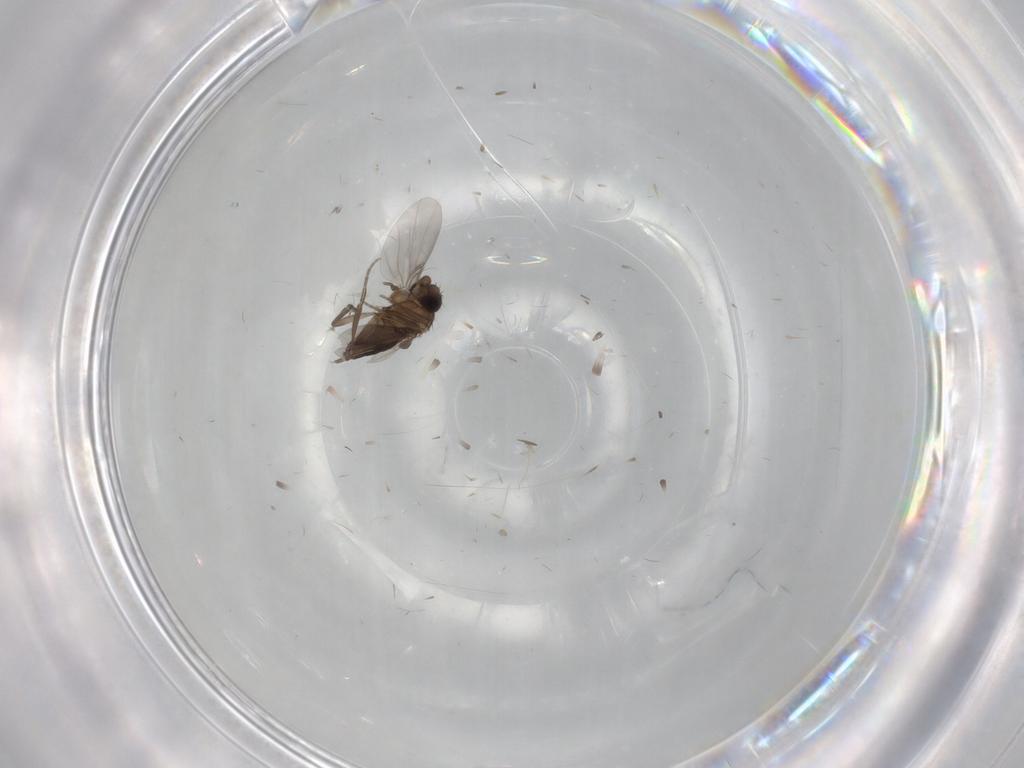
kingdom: Animalia
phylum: Arthropoda
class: Insecta
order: Diptera
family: Phoridae
